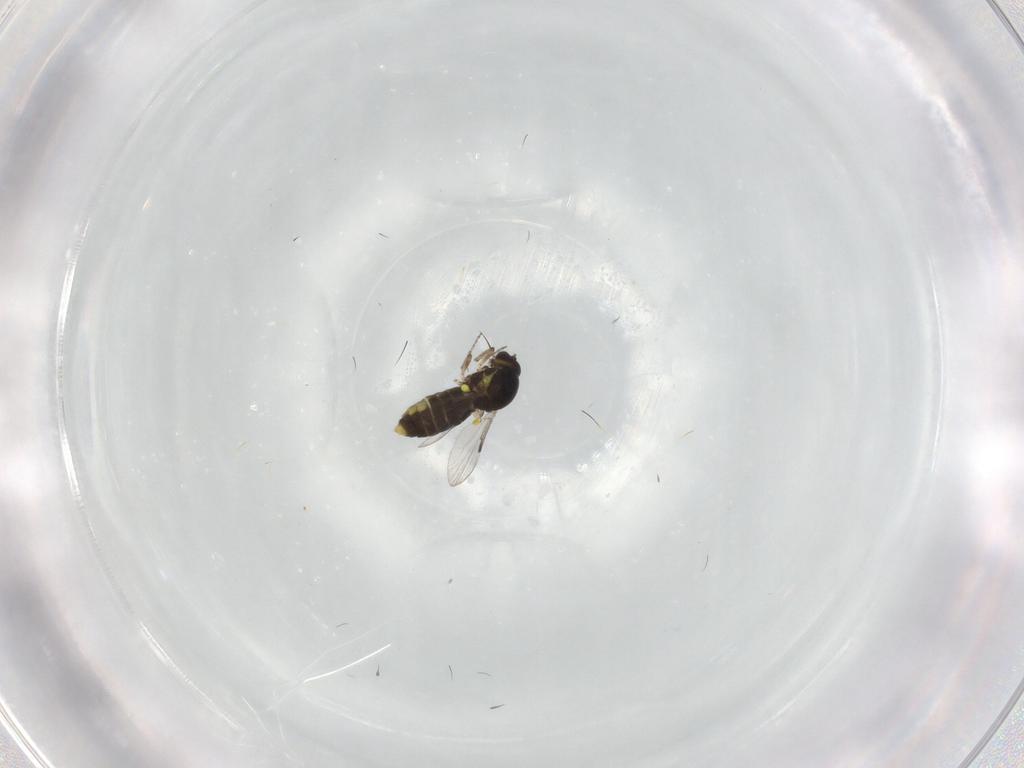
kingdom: Animalia
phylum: Arthropoda
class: Insecta
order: Diptera
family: Ceratopogonidae
